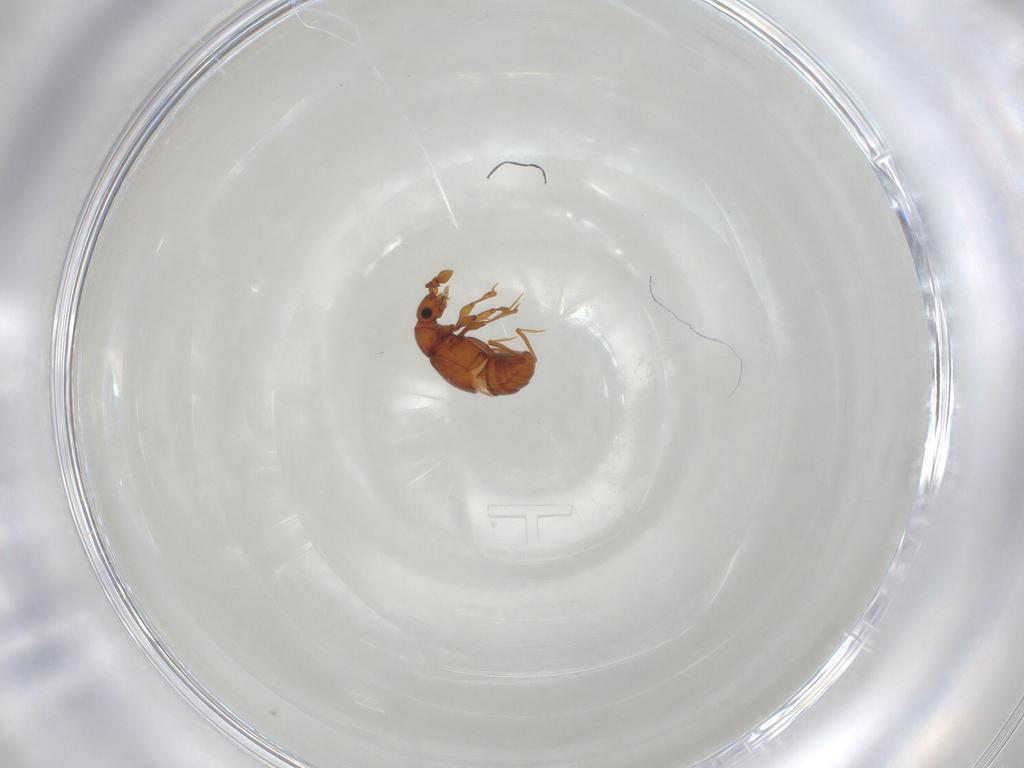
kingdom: Animalia
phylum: Arthropoda
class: Insecta
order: Coleoptera
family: Staphylinidae
